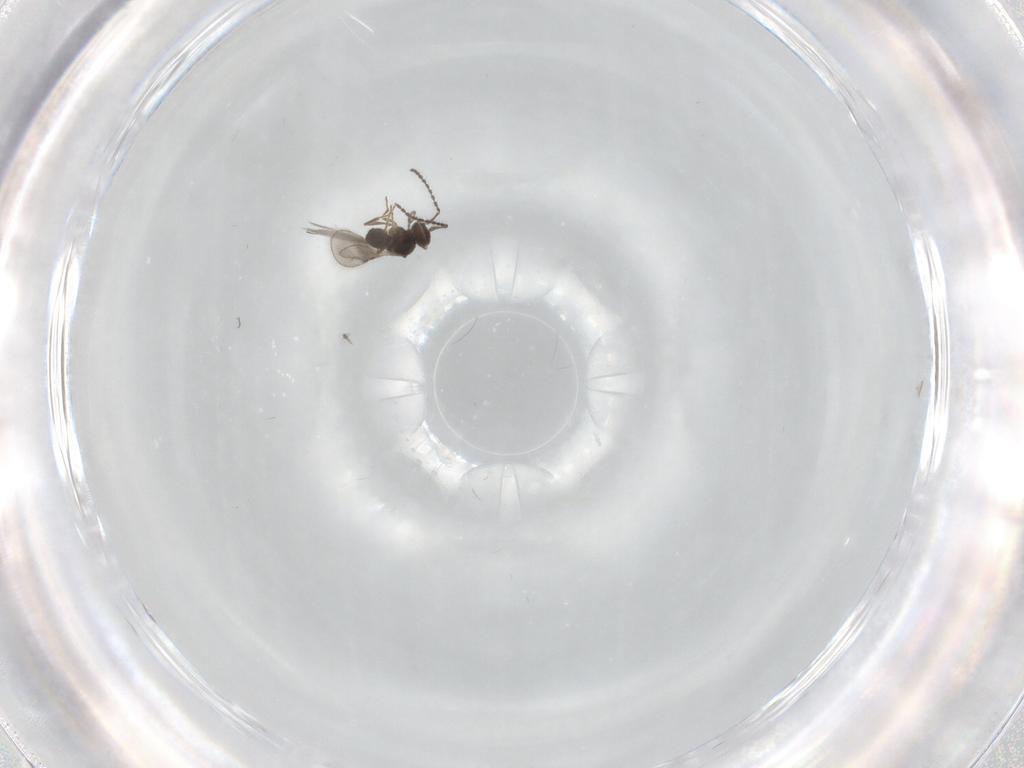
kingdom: Animalia
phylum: Arthropoda
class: Insecta
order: Hymenoptera
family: Ceraphronidae
